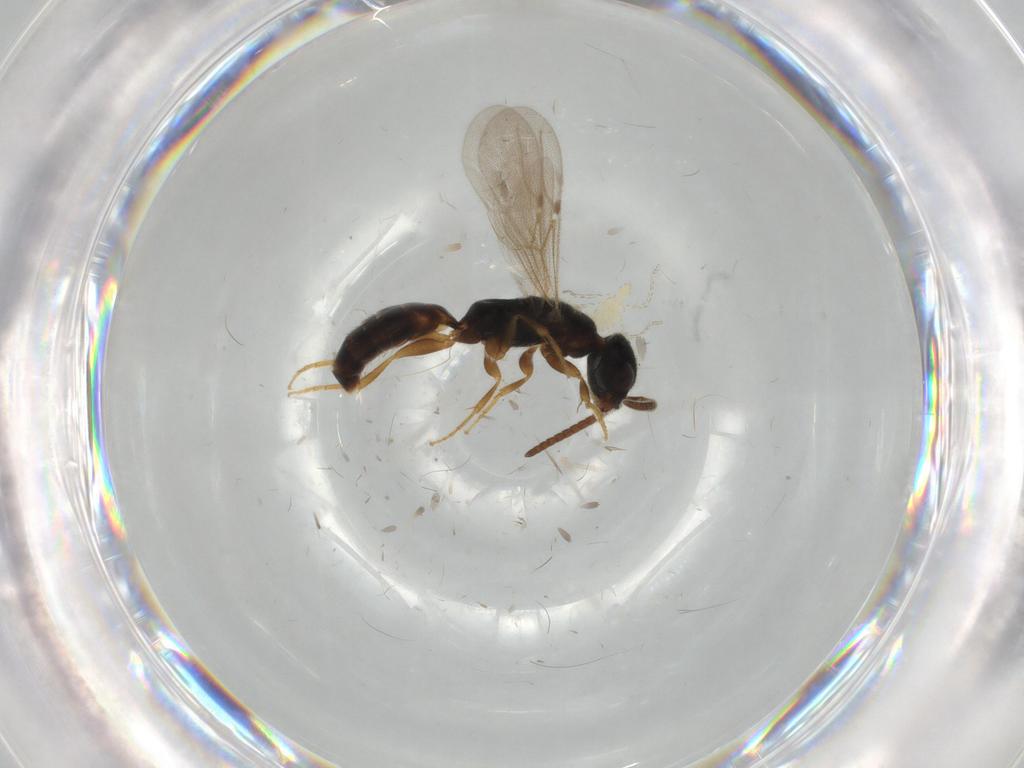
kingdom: Animalia
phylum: Arthropoda
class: Insecta
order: Hymenoptera
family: Bethylidae
